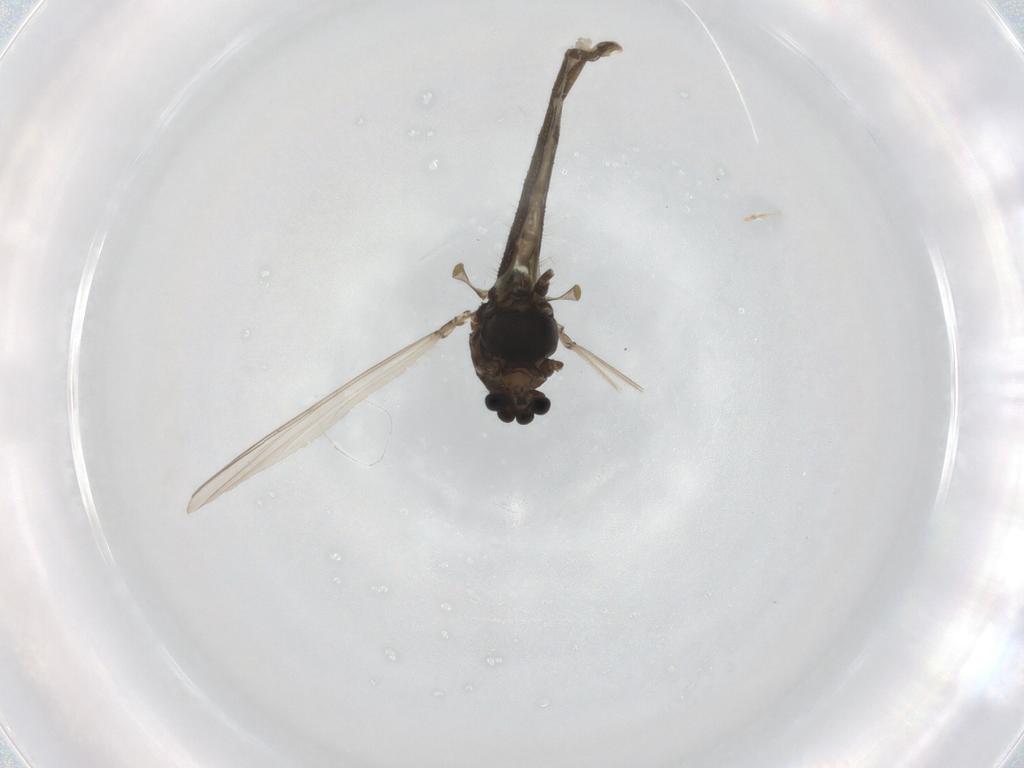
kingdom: Animalia
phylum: Arthropoda
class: Insecta
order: Diptera
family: Chironomidae
